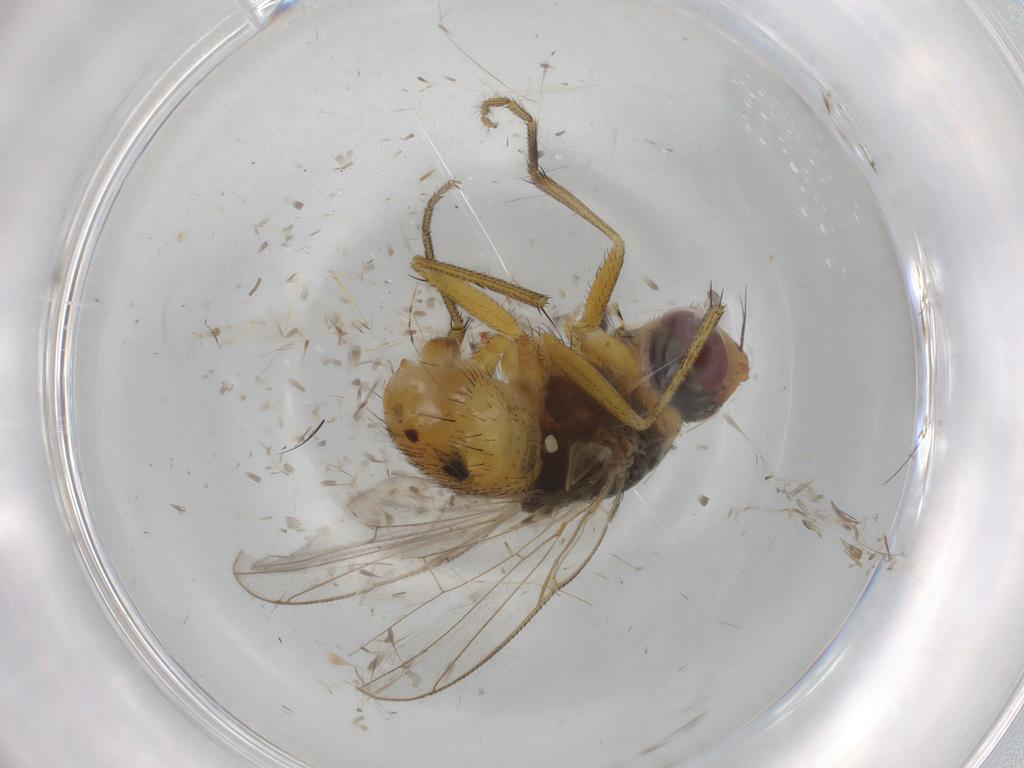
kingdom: Animalia
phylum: Arthropoda
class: Insecta
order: Diptera
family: Muscidae
